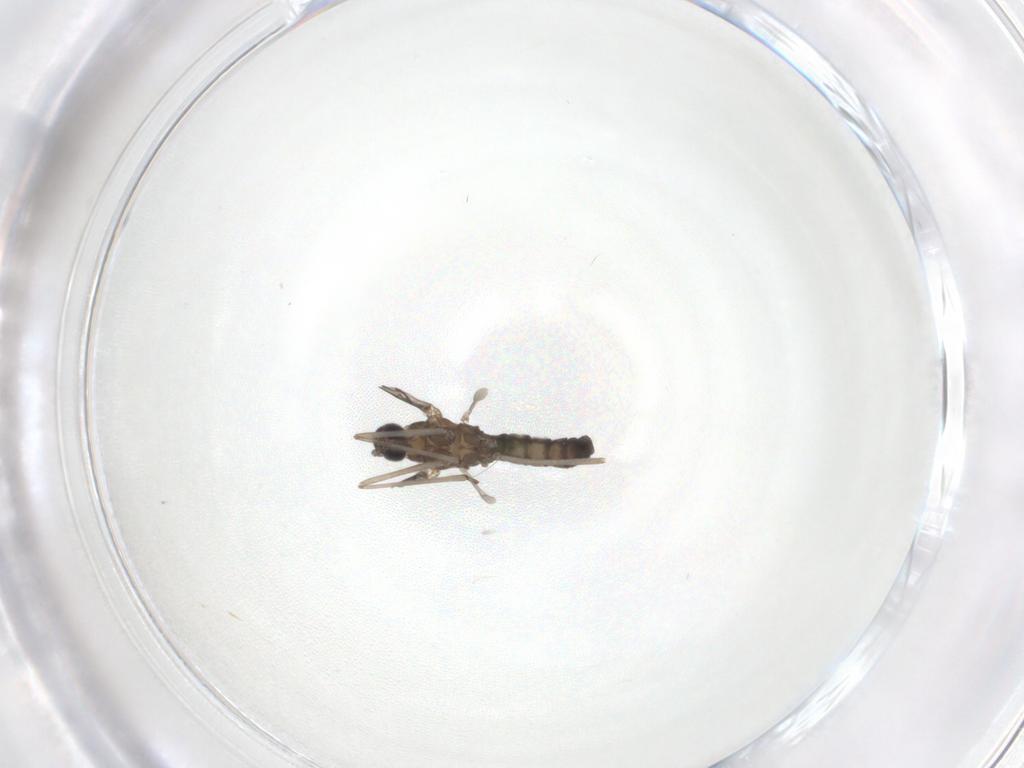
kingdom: Animalia
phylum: Arthropoda
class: Insecta
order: Diptera
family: Cecidomyiidae
